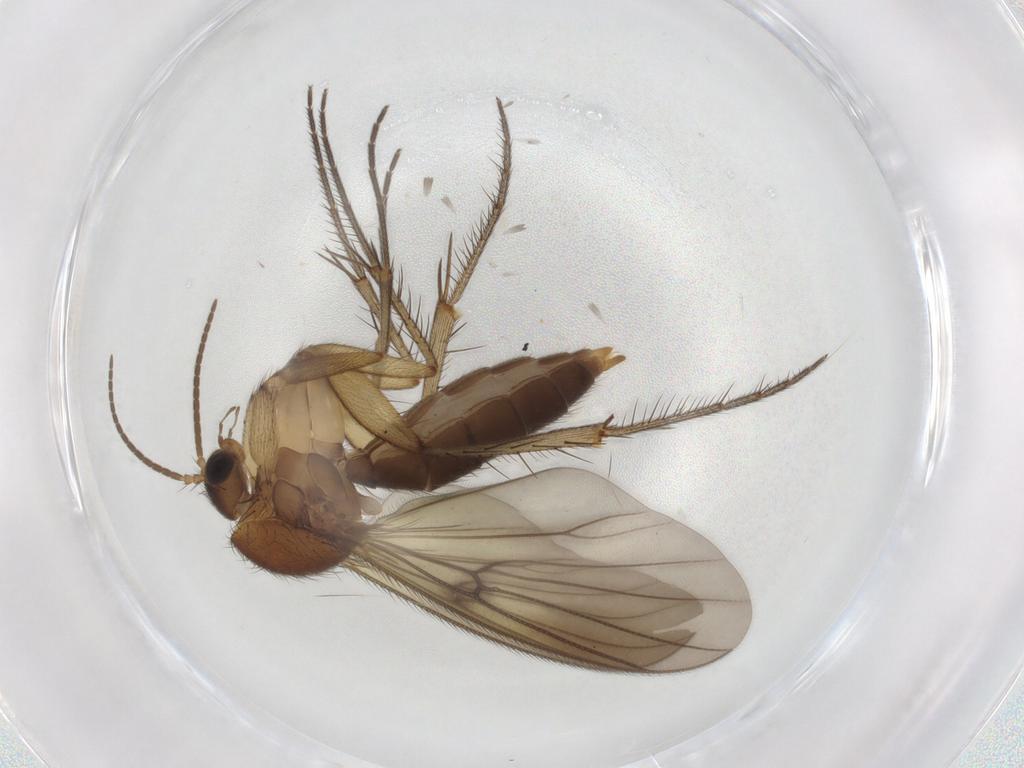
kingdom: Animalia
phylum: Arthropoda
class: Insecta
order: Diptera
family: Mycetophilidae
